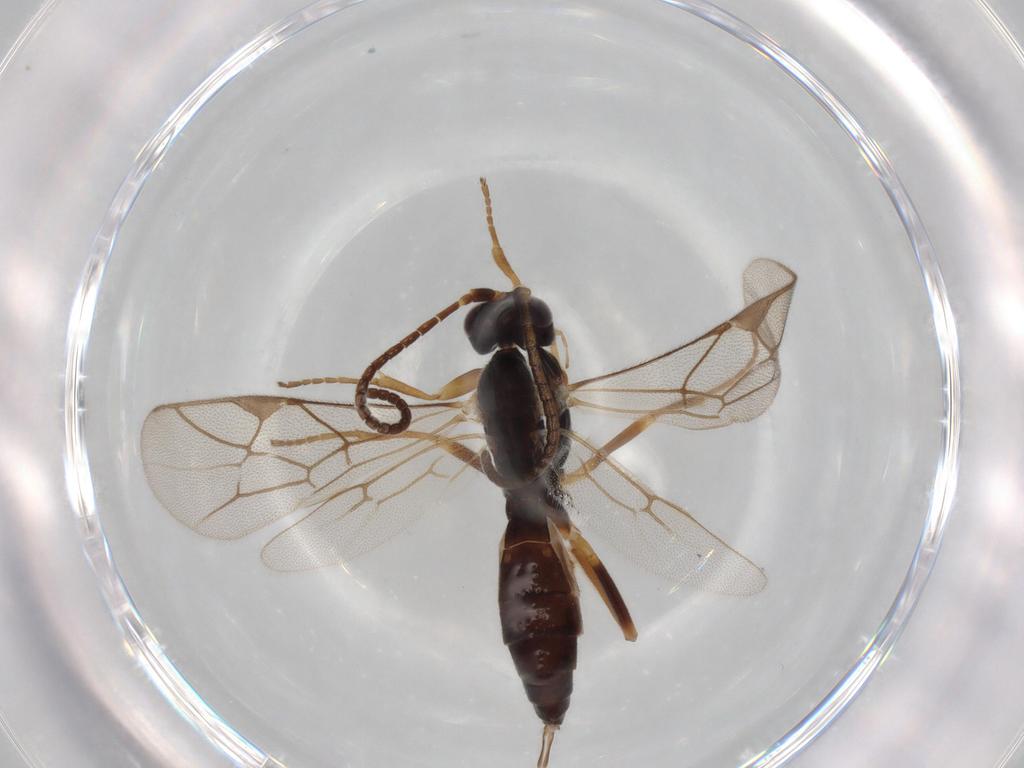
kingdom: Animalia
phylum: Arthropoda
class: Insecta
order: Hymenoptera
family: Ichneumonidae
